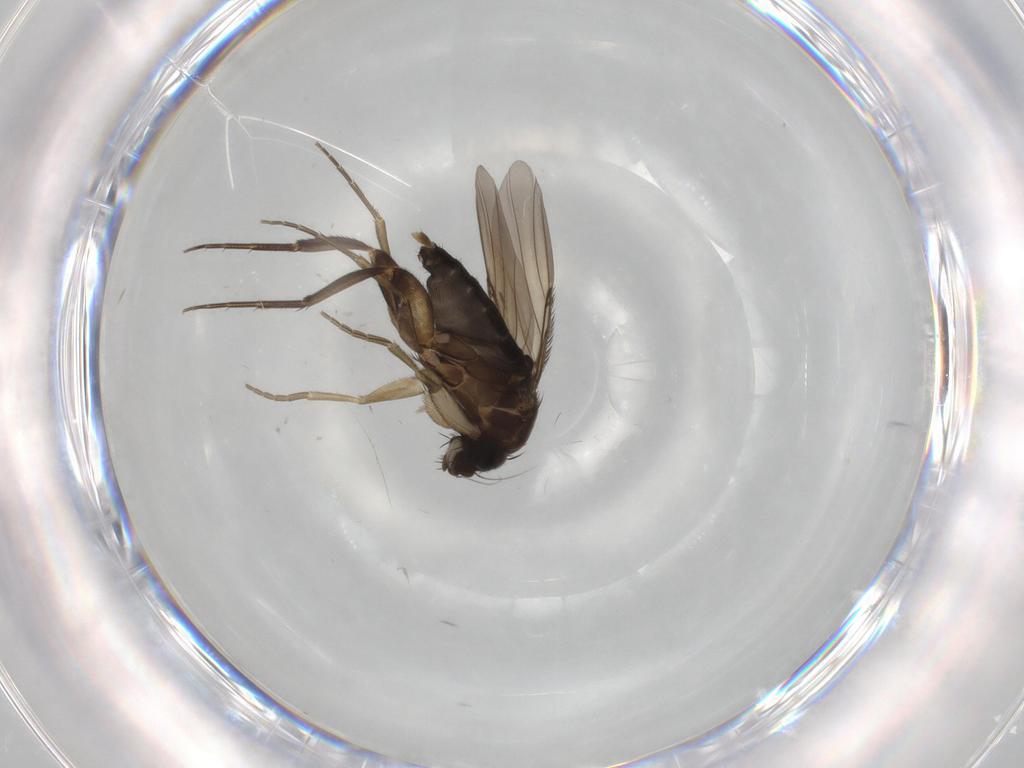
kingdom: Animalia
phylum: Arthropoda
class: Insecta
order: Diptera
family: Phoridae
